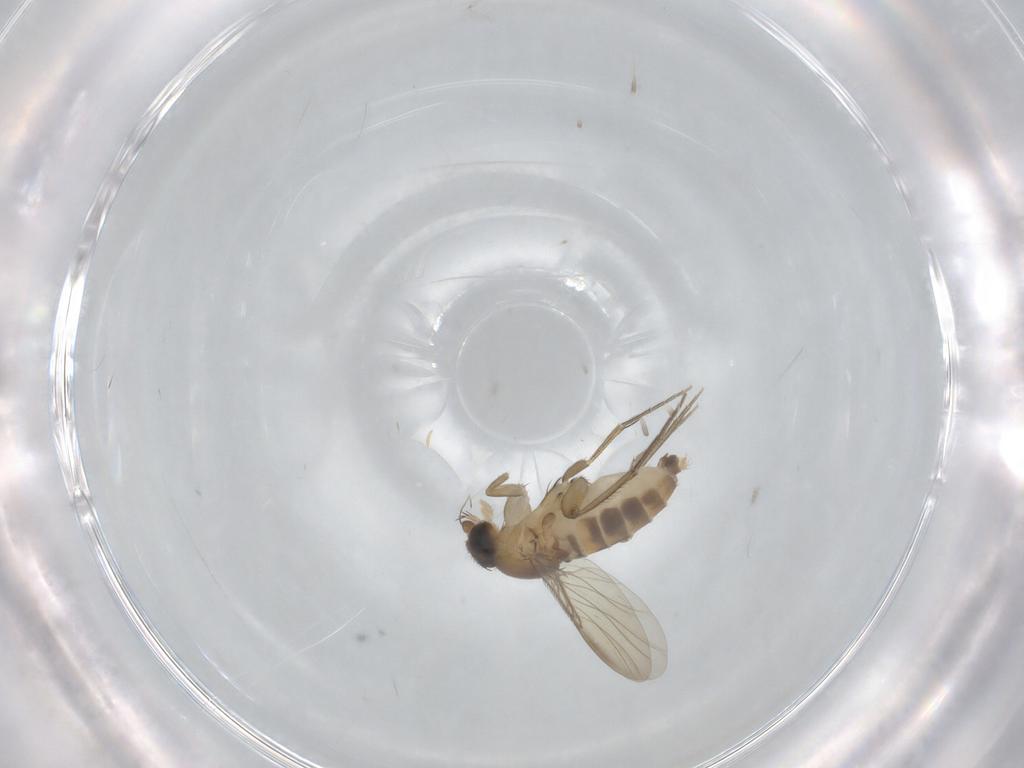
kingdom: Animalia
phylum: Arthropoda
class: Insecta
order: Diptera
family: Phoridae
